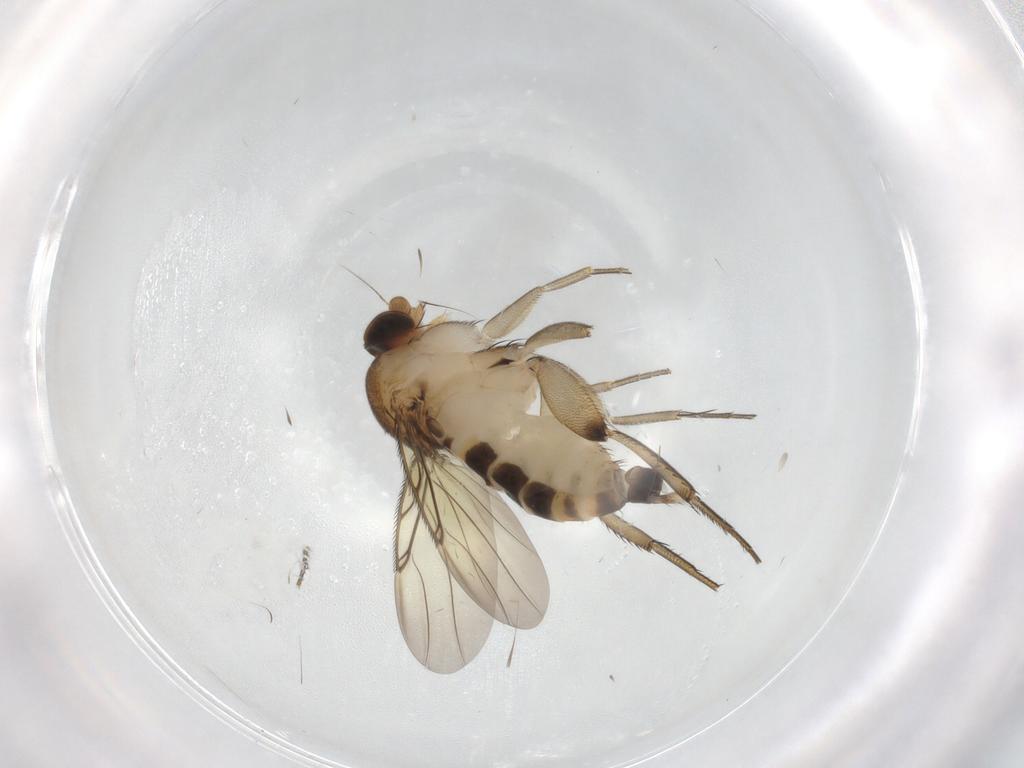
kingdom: Animalia
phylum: Arthropoda
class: Insecta
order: Diptera
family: Phoridae
